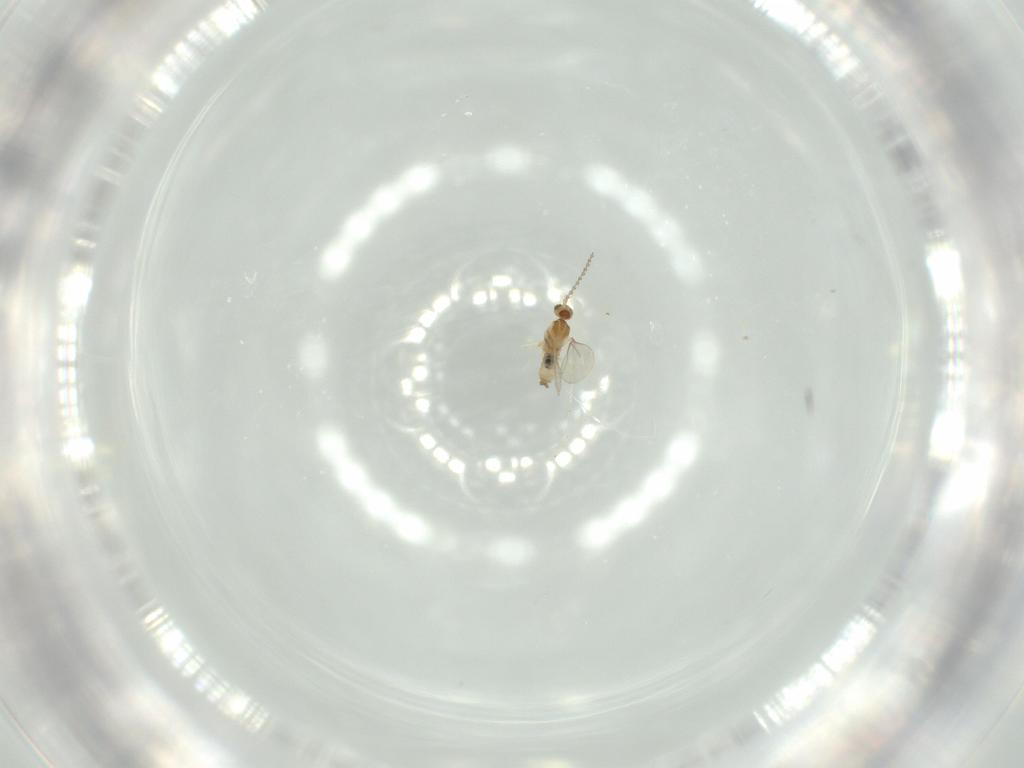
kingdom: Animalia
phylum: Arthropoda
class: Insecta
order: Diptera
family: Cecidomyiidae
